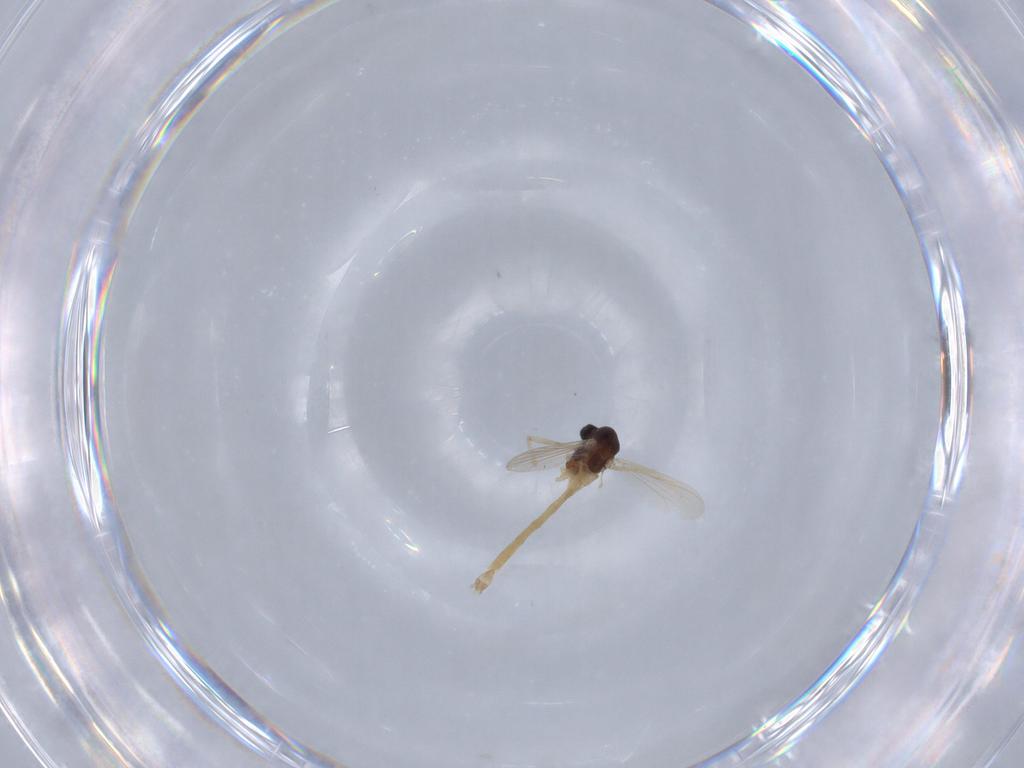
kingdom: Animalia
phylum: Arthropoda
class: Insecta
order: Diptera
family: Chironomidae
